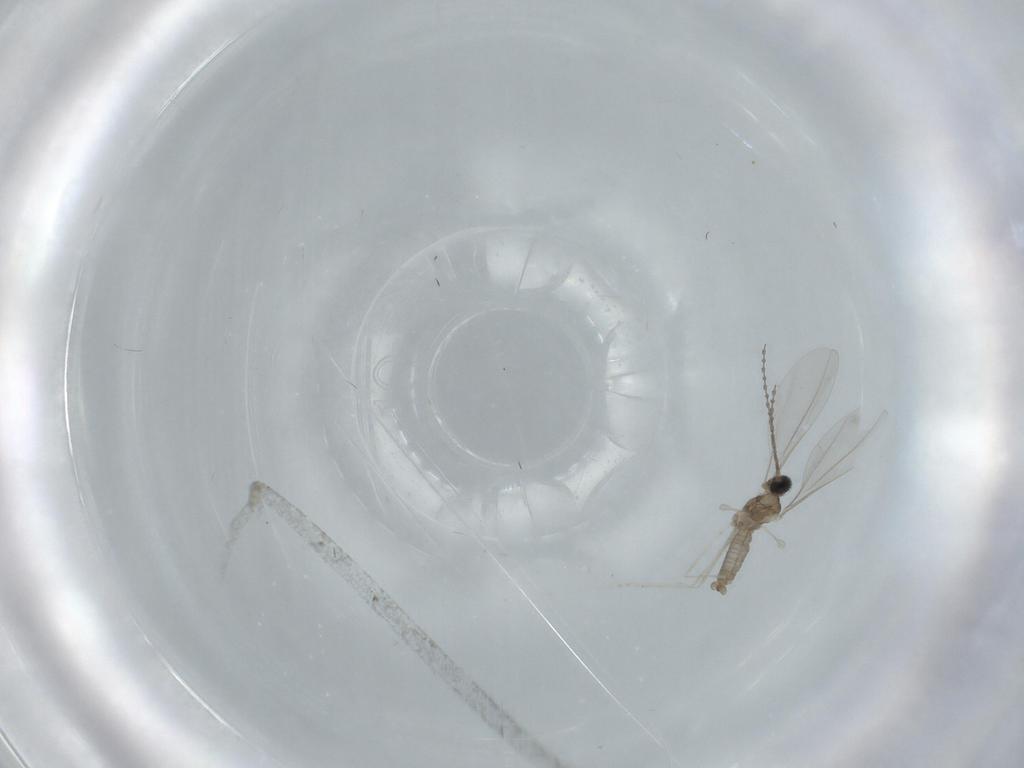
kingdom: Animalia
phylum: Arthropoda
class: Insecta
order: Diptera
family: Cecidomyiidae
